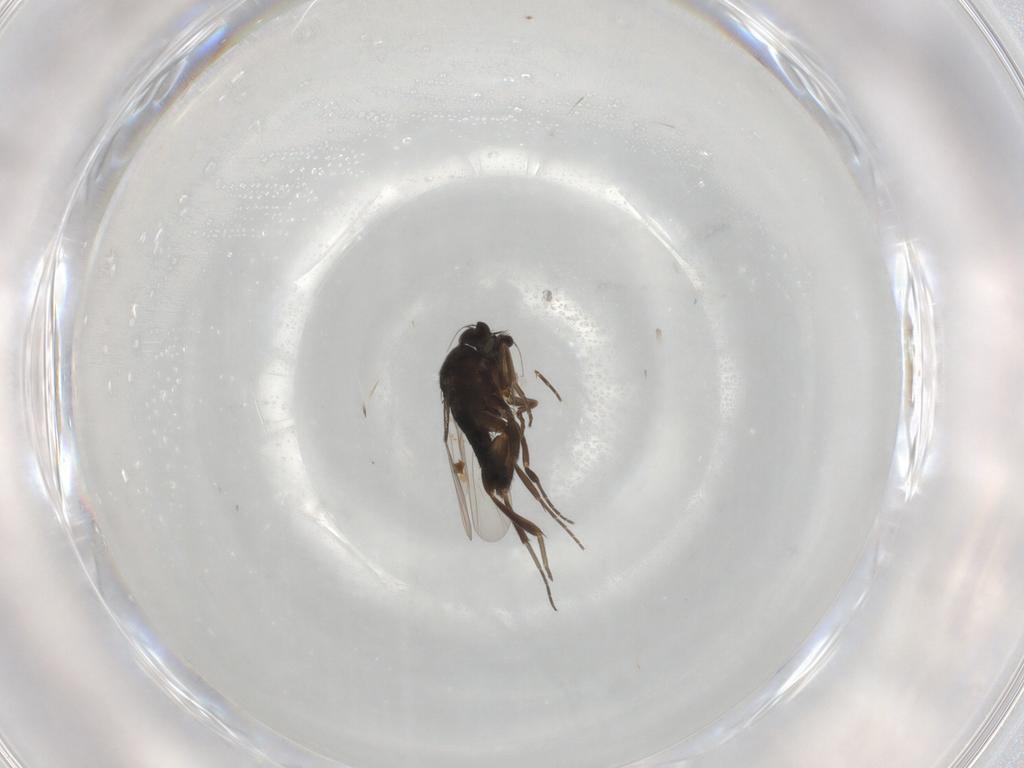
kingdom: Animalia
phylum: Arthropoda
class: Insecta
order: Diptera
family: Phoridae
